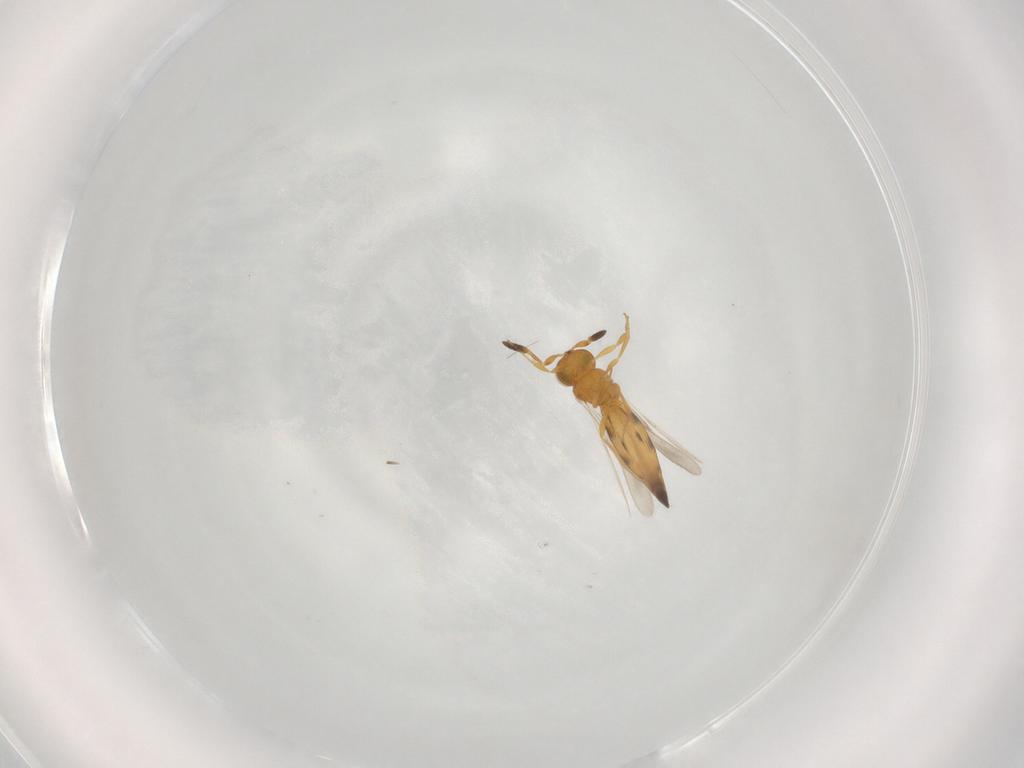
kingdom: Animalia
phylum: Arthropoda
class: Insecta
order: Hymenoptera
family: Scelionidae
